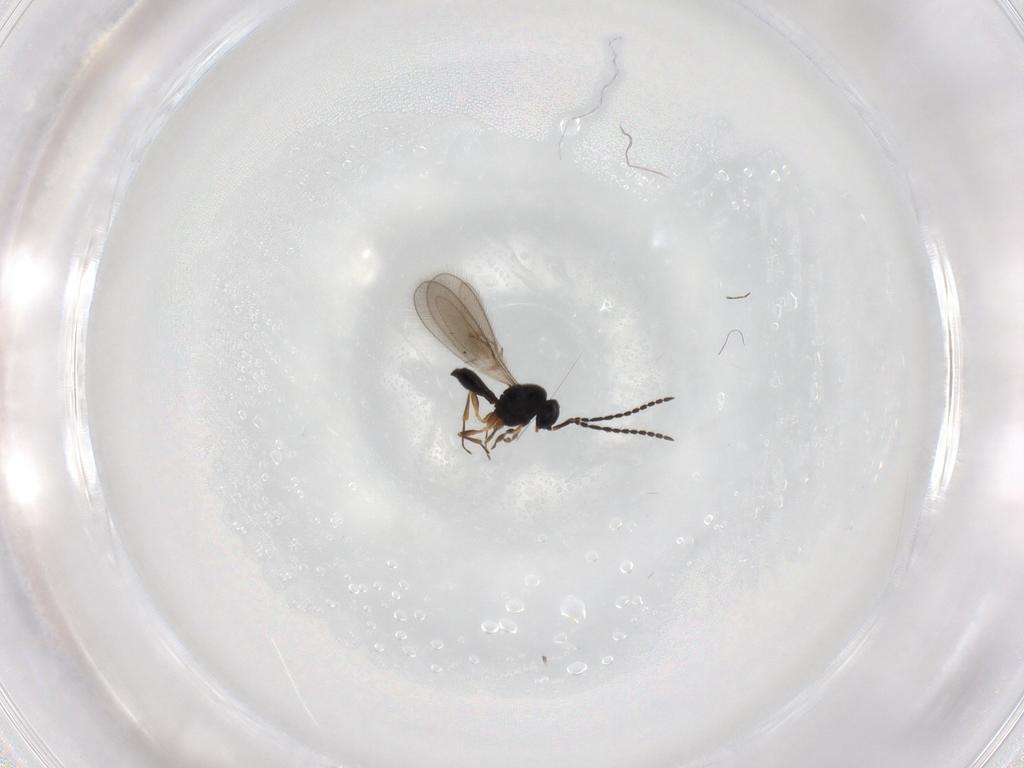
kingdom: Animalia
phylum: Arthropoda
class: Insecta
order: Hymenoptera
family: Scelionidae
